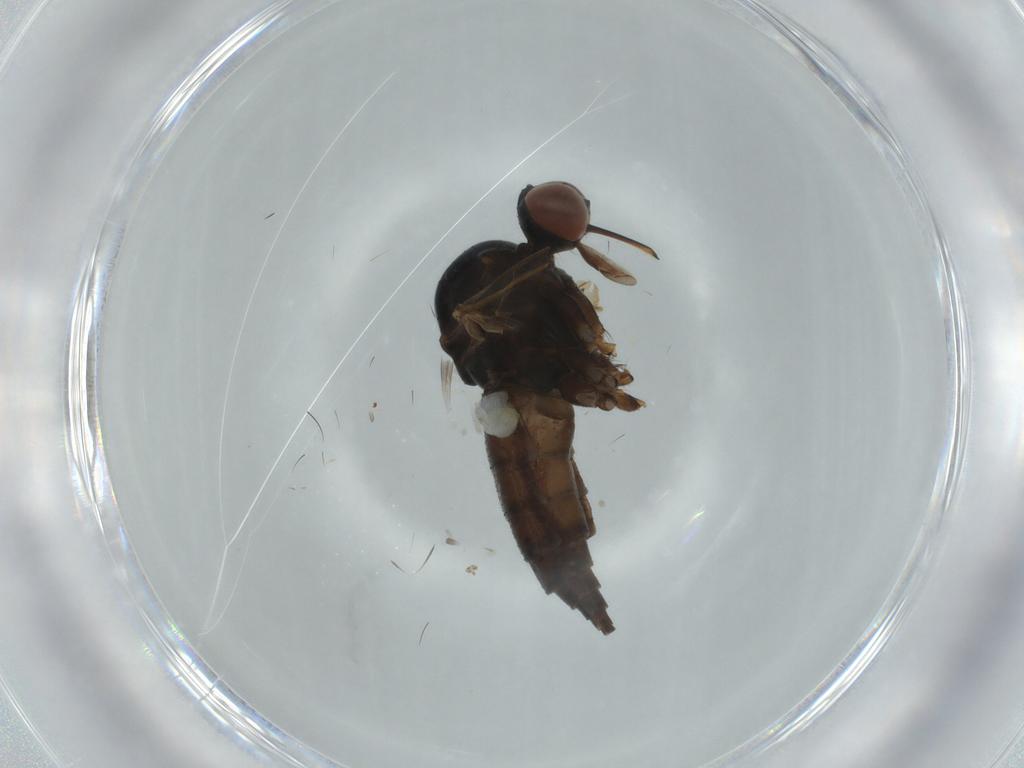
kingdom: Animalia
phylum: Arthropoda
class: Insecta
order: Diptera
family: Empididae
